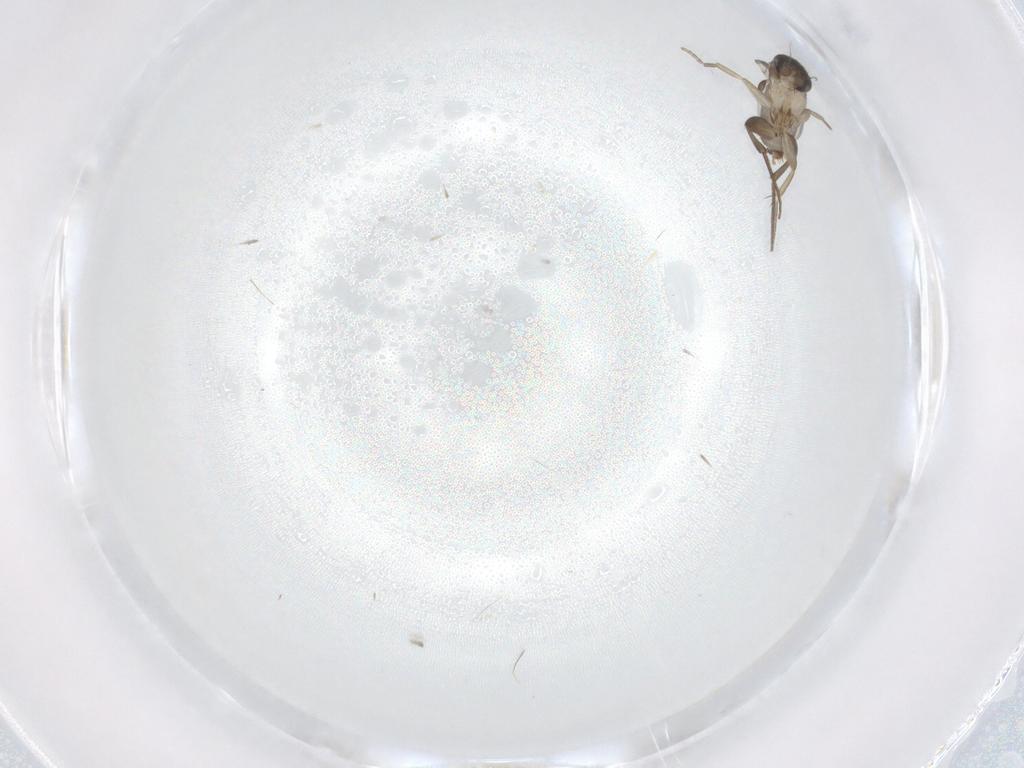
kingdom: Animalia
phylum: Arthropoda
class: Insecta
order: Diptera
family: Phoridae
